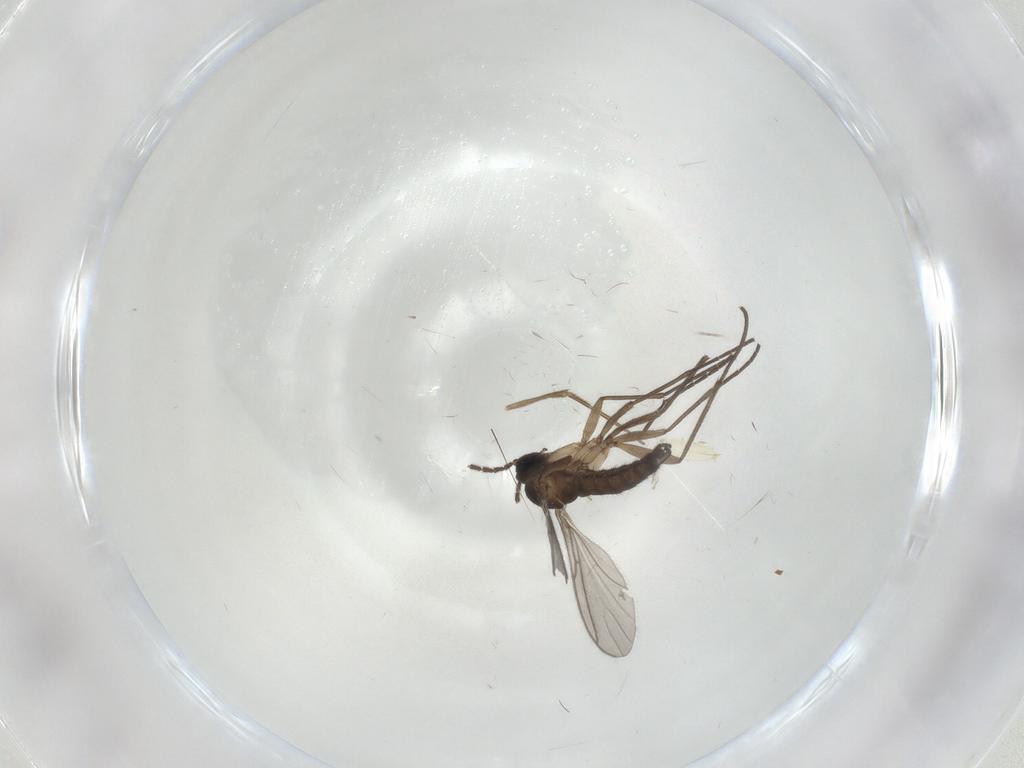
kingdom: Animalia
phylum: Arthropoda
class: Insecta
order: Diptera
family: Sciaridae
